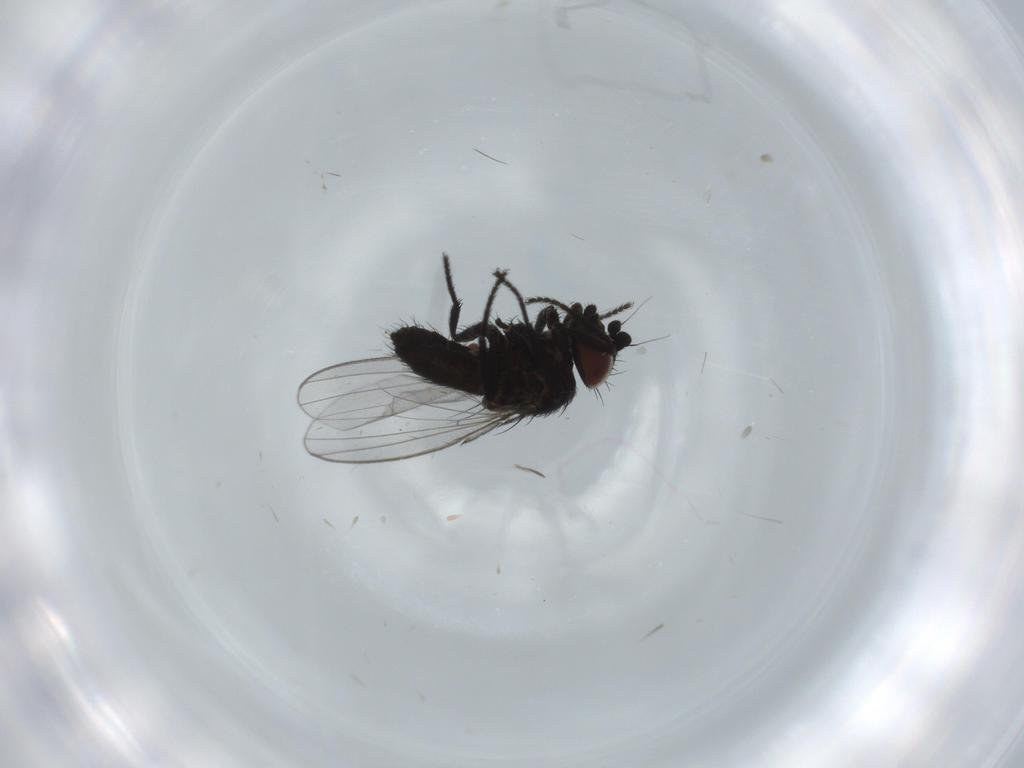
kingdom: Animalia
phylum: Arthropoda
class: Insecta
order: Diptera
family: Milichiidae
